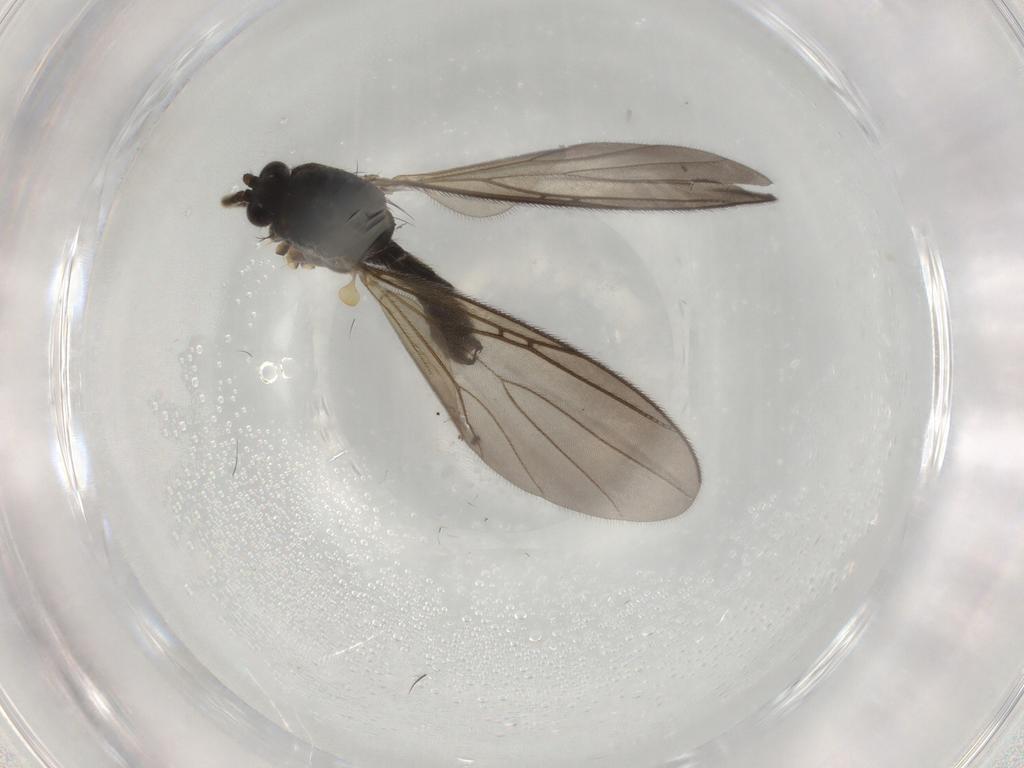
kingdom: Animalia
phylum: Arthropoda
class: Insecta
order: Diptera
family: Mycetophilidae
